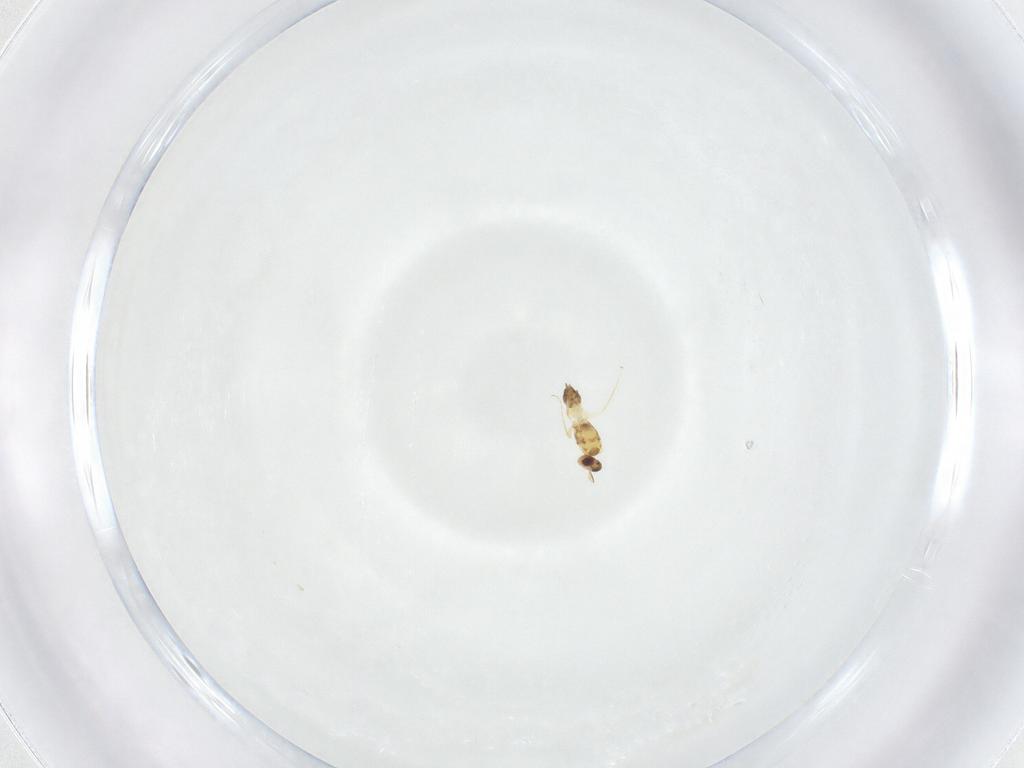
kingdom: Animalia
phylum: Arthropoda
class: Insecta
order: Hymenoptera
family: Mymaridae
